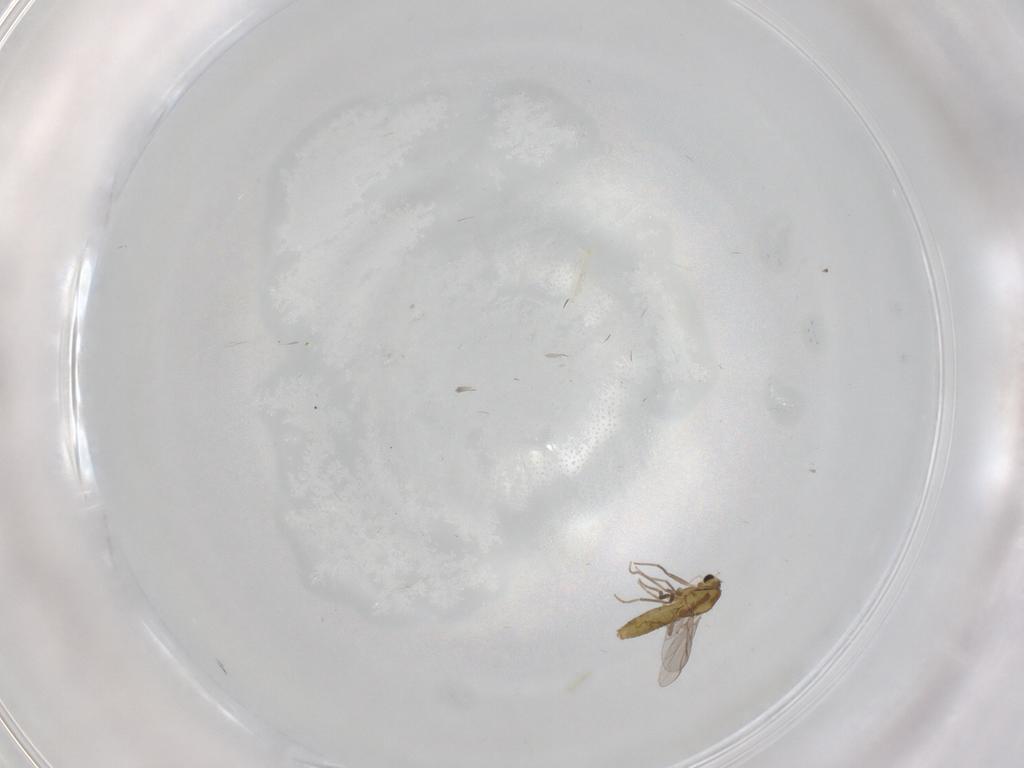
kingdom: Animalia
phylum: Arthropoda
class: Insecta
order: Diptera
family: Chironomidae
